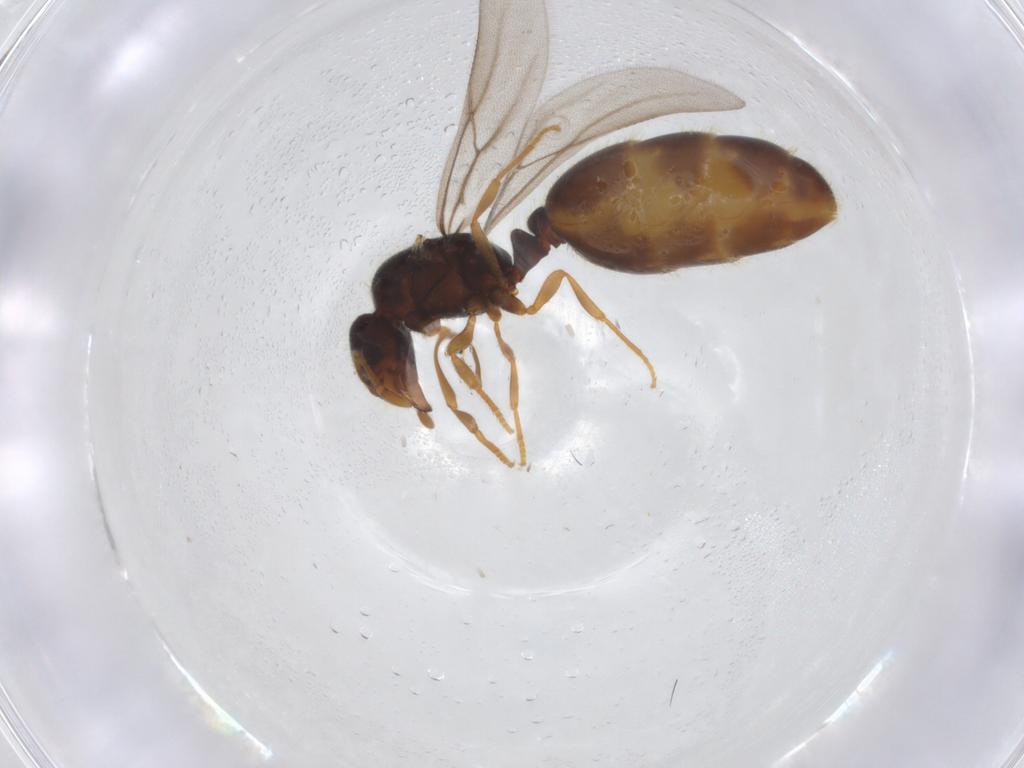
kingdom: Animalia
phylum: Arthropoda
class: Insecta
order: Hymenoptera
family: Formicidae
